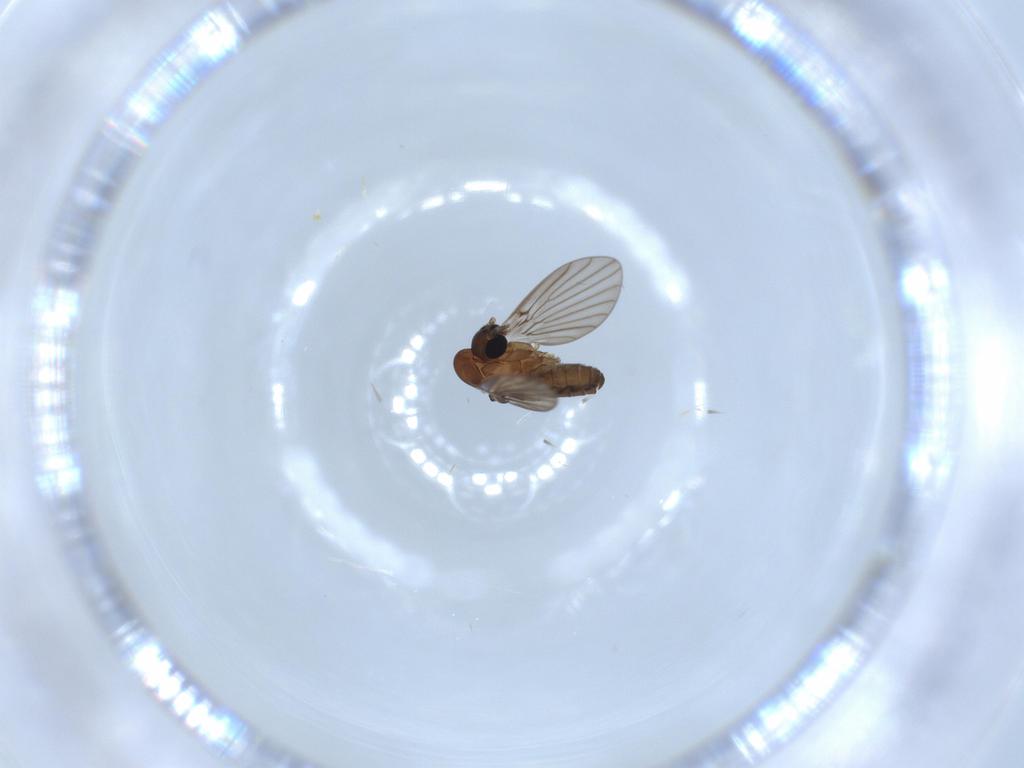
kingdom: Animalia
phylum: Arthropoda
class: Insecta
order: Diptera
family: Psychodidae
